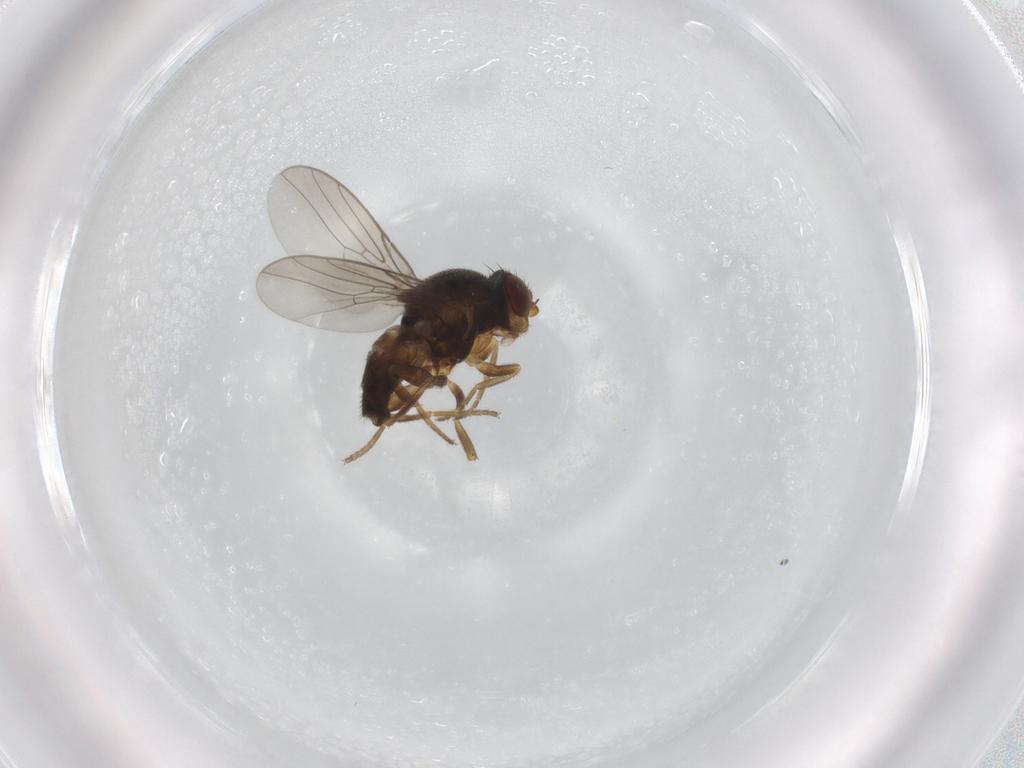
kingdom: Animalia
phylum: Arthropoda
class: Insecta
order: Diptera
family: Chloropidae
